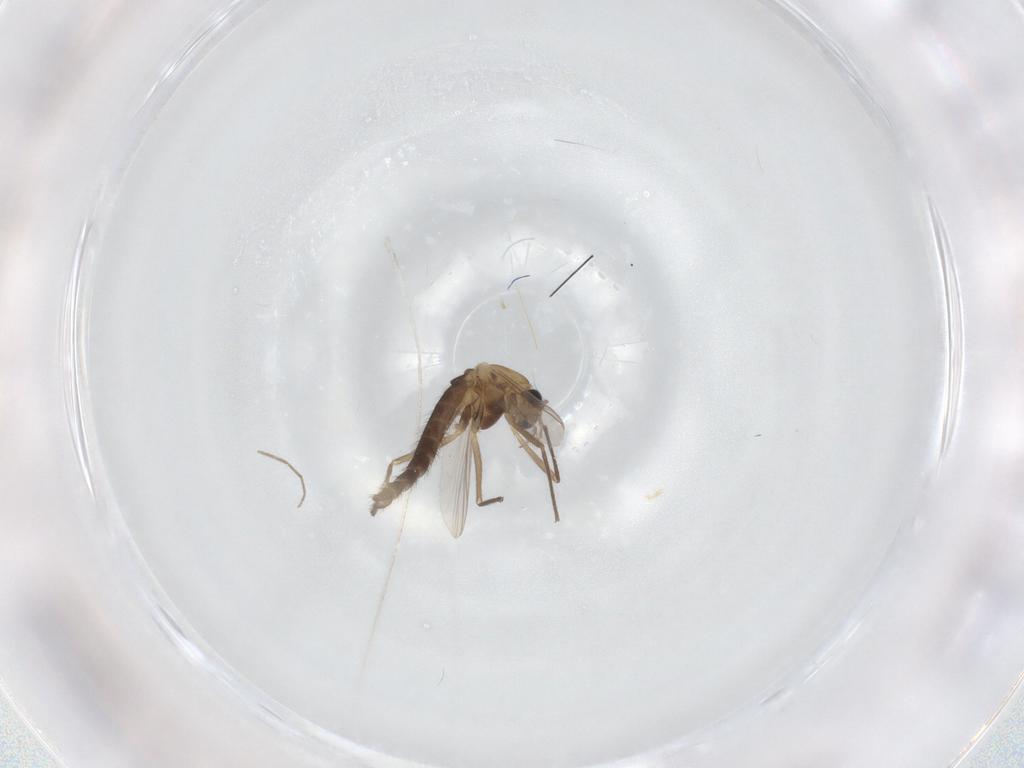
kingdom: Animalia
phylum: Arthropoda
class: Insecta
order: Diptera
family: Chironomidae
